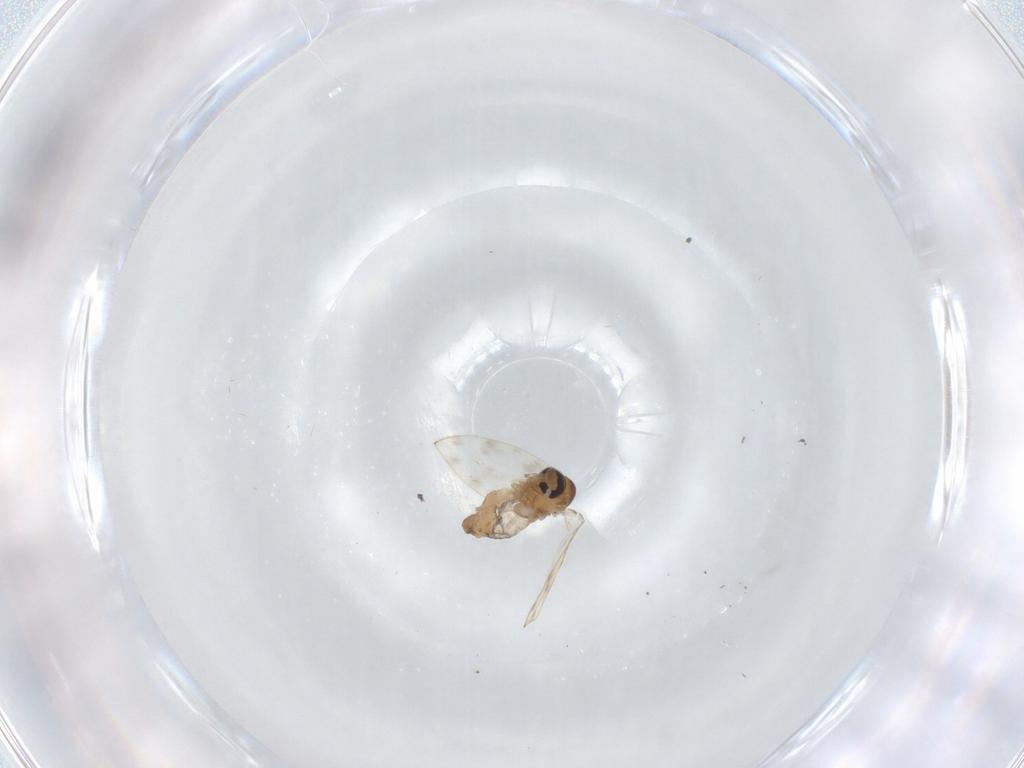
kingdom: Animalia
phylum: Arthropoda
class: Insecta
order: Diptera
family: Psychodidae
